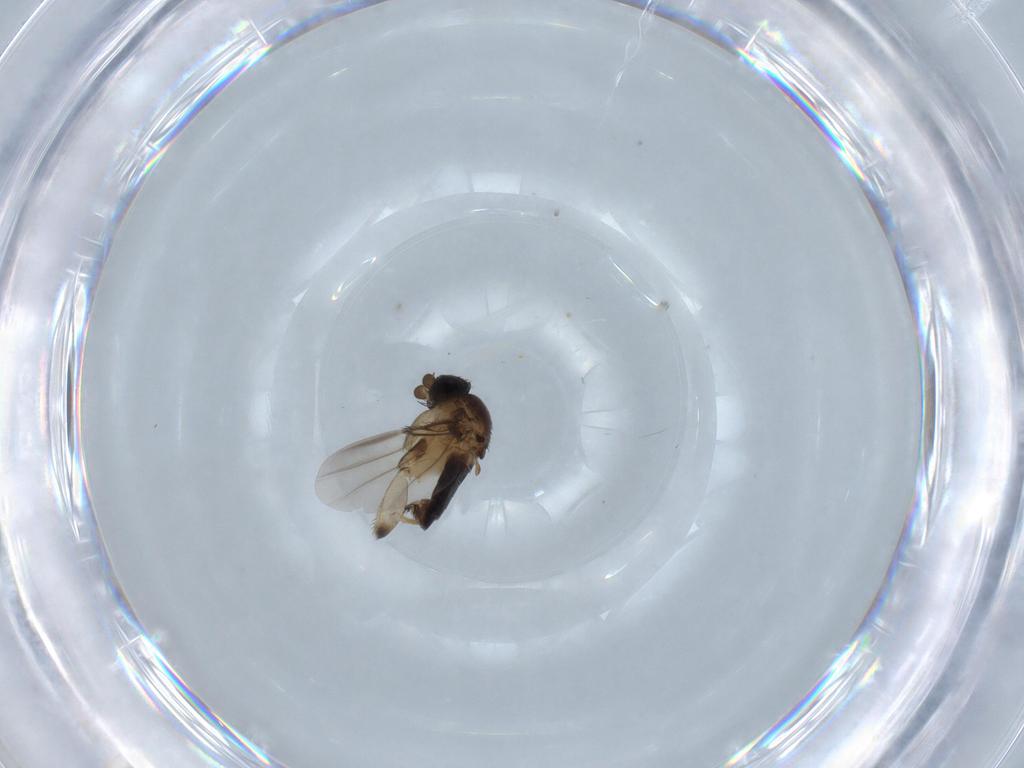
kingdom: Animalia
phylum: Arthropoda
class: Insecta
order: Diptera
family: Phoridae
